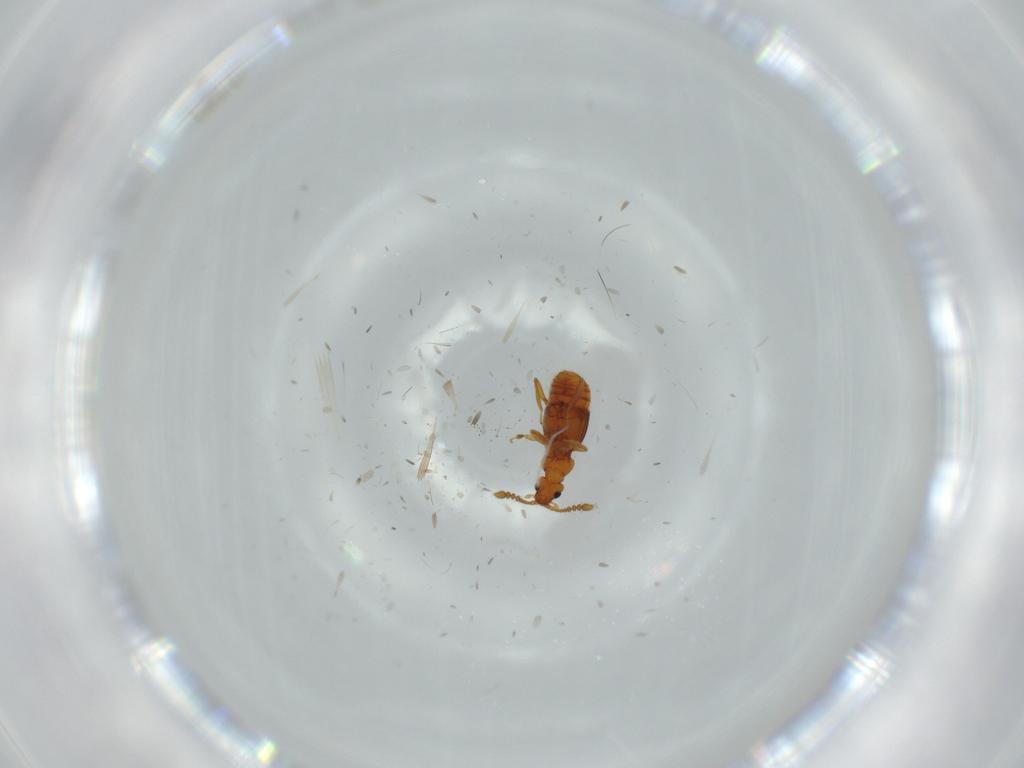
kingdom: Animalia
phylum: Arthropoda
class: Insecta
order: Coleoptera
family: Staphylinidae
